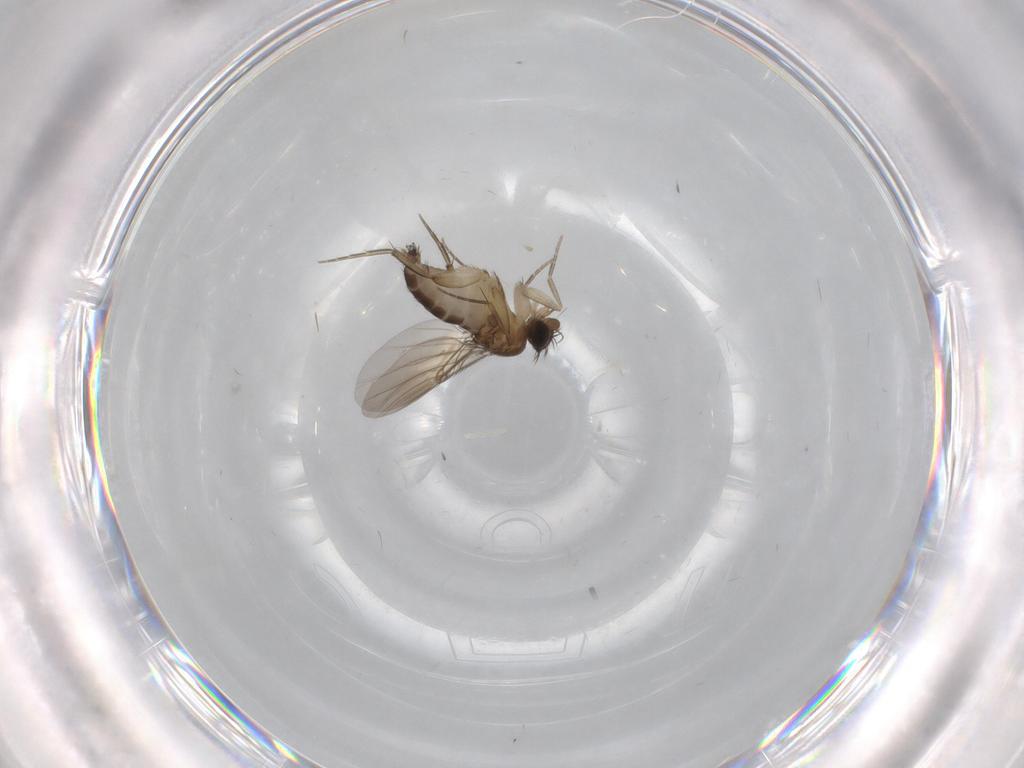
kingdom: Animalia
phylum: Arthropoda
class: Insecta
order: Diptera
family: Phoridae
